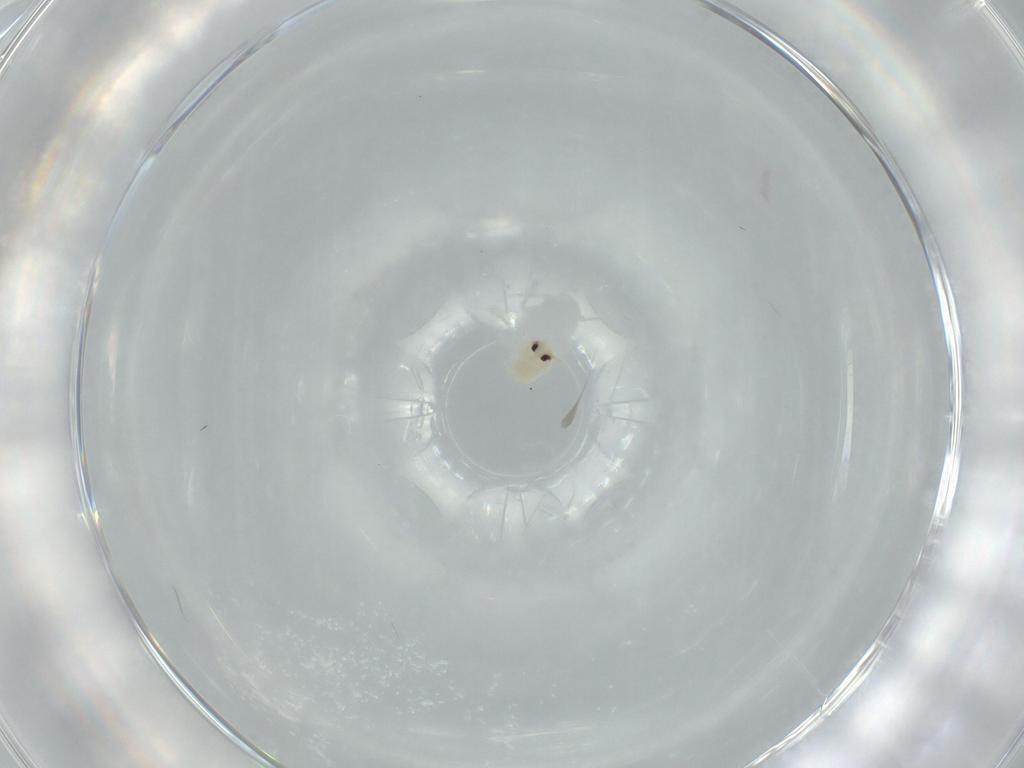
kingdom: Animalia
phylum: Arthropoda
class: Insecta
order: Hemiptera
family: Aleyrodidae
